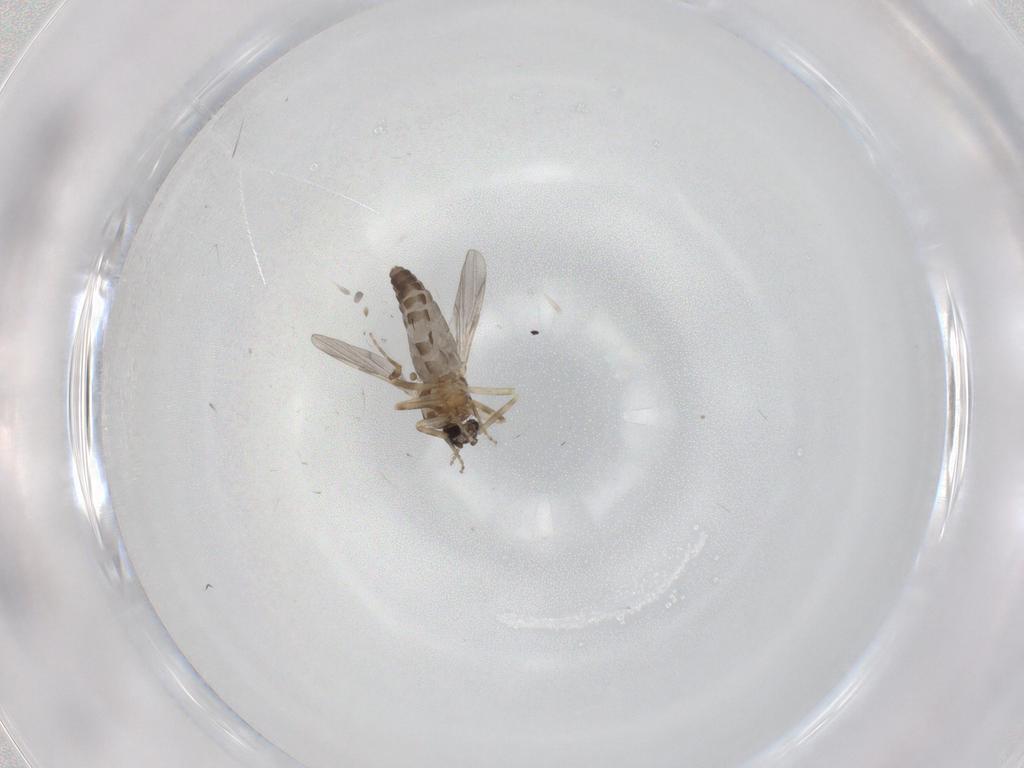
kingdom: Animalia
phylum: Arthropoda
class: Insecta
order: Diptera
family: Ceratopogonidae
